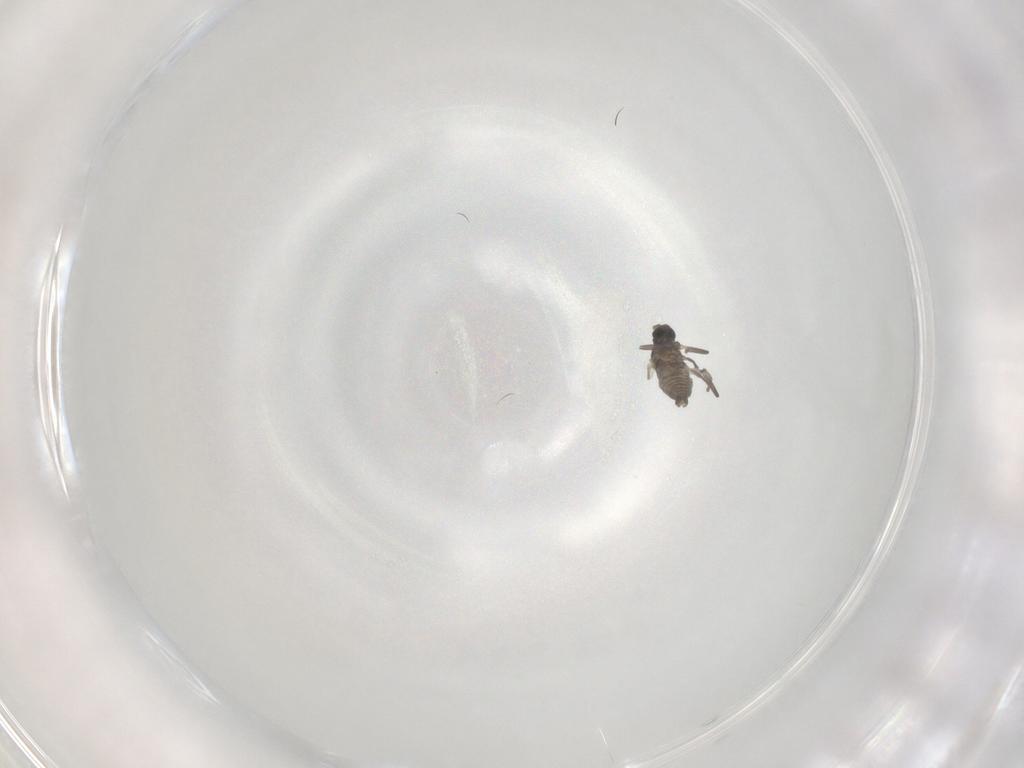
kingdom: Animalia
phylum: Arthropoda
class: Insecta
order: Diptera
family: Cecidomyiidae
